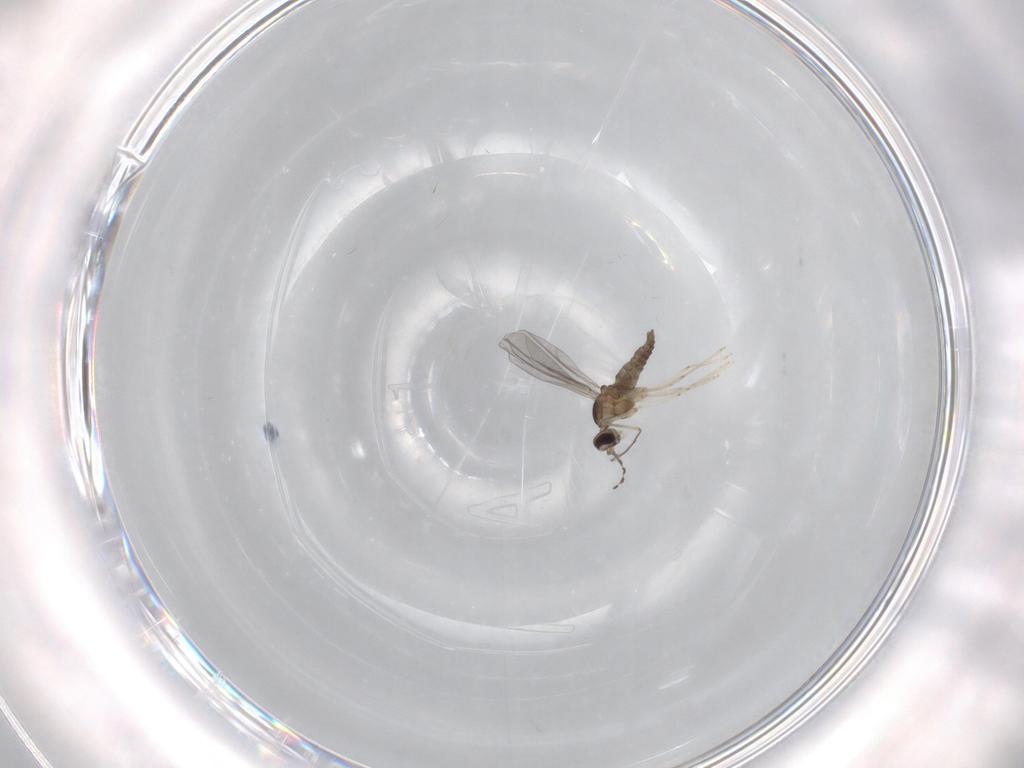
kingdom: Animalia
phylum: Arthropoda
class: Insecta
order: Diptera
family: Cecidomyiidae
